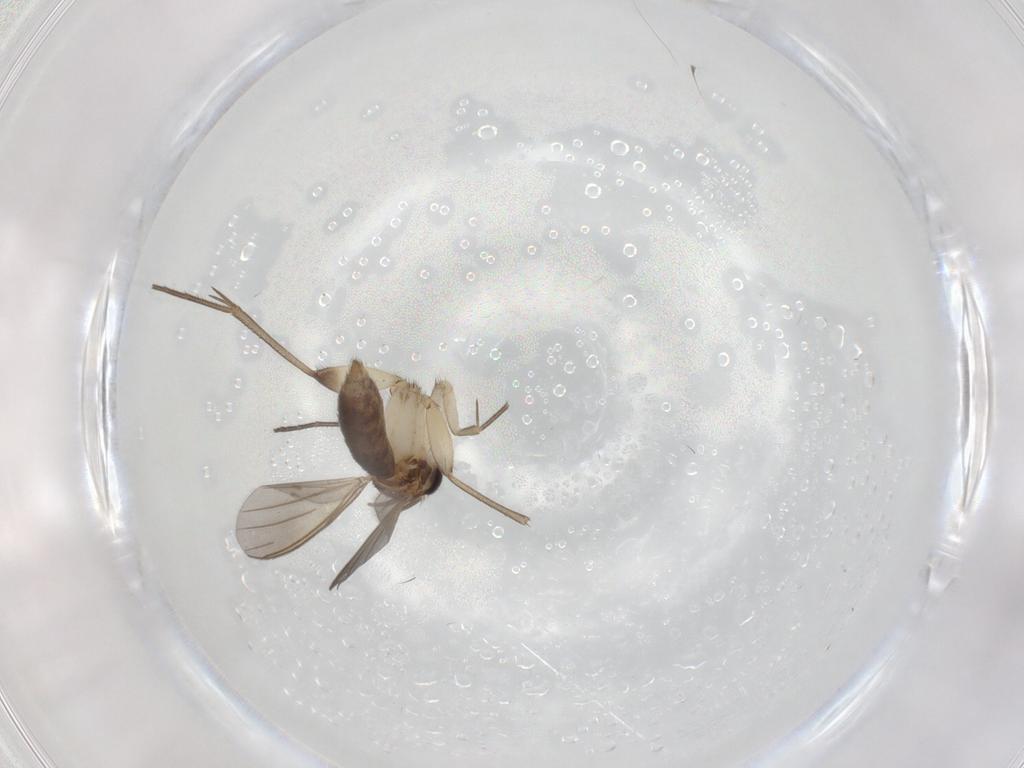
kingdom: Animalia
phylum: Arthropoda
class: Insecta
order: Diptera
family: Mycetophilidae
